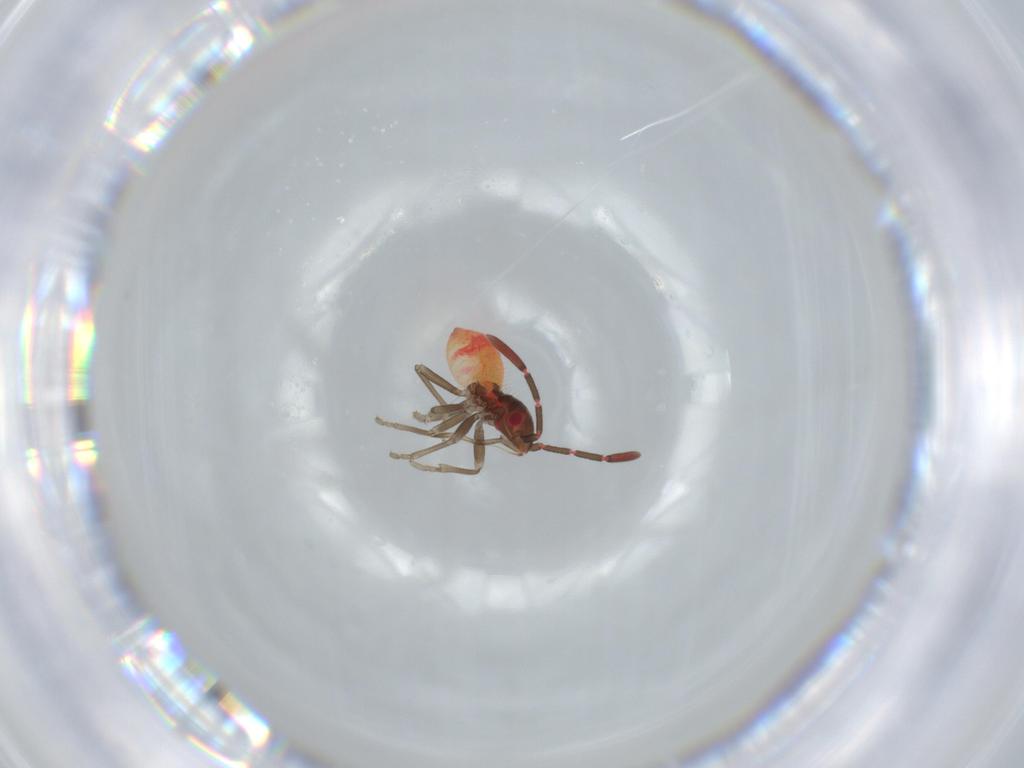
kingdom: Animalia
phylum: Arthropoda
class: Insecta
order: Hemiptera
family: Rhyparochromidae
